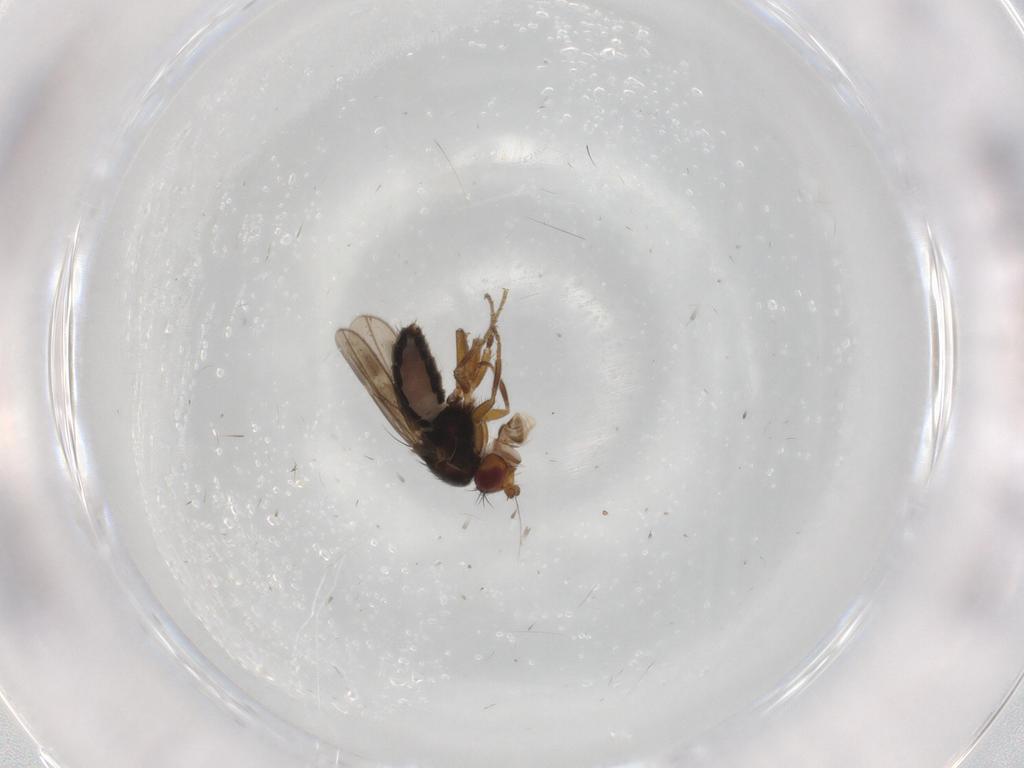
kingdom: Animalia
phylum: Arthropoda
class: Insecta
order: Diptera
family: Sphaeroceridae
